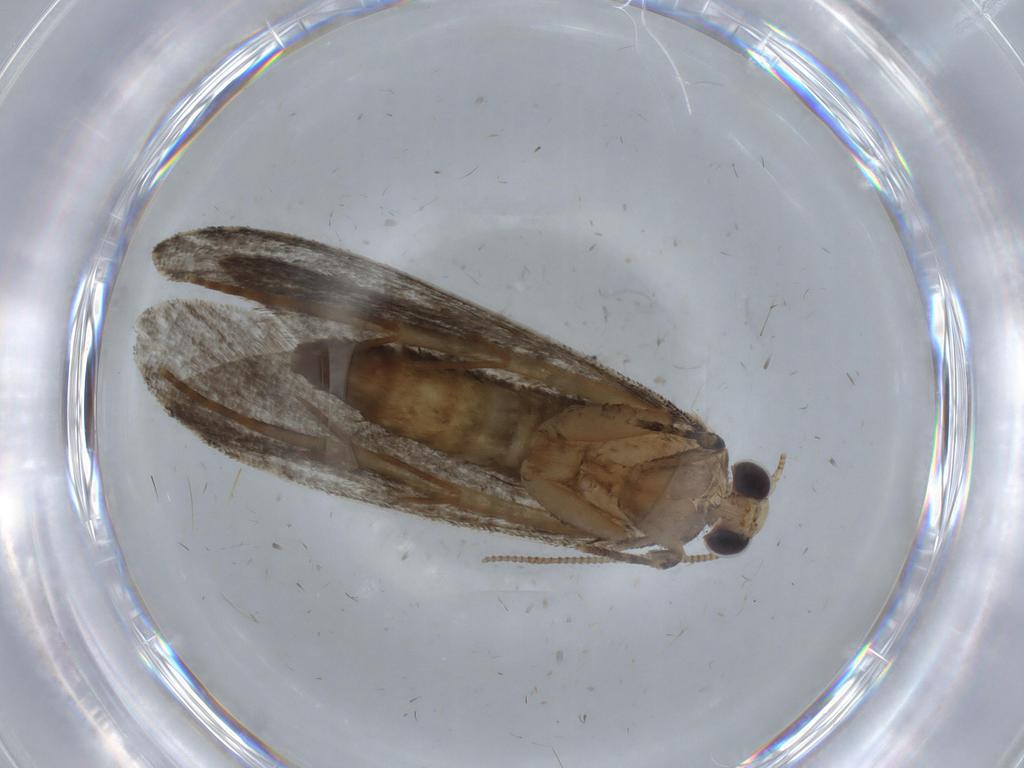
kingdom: Animalia
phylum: Arthropoda
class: Insecta
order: Lepidoptera
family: Tineidae
